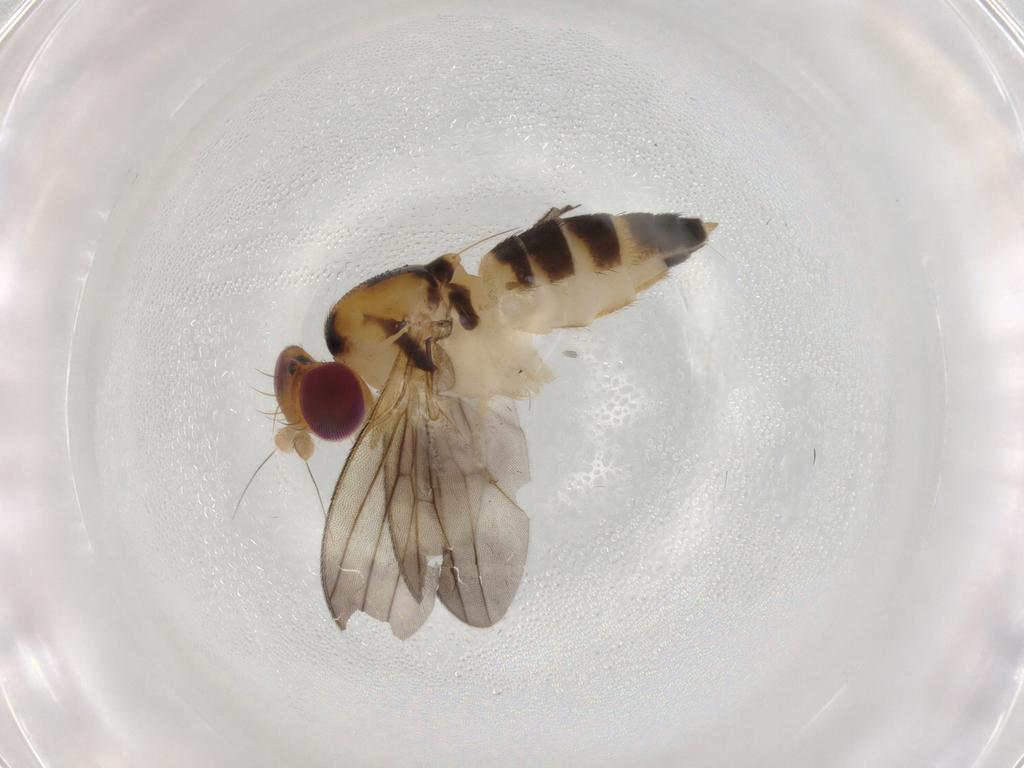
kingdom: Animalia
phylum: Arthropoda
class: Insecta
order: Diptera
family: Clusiidae
